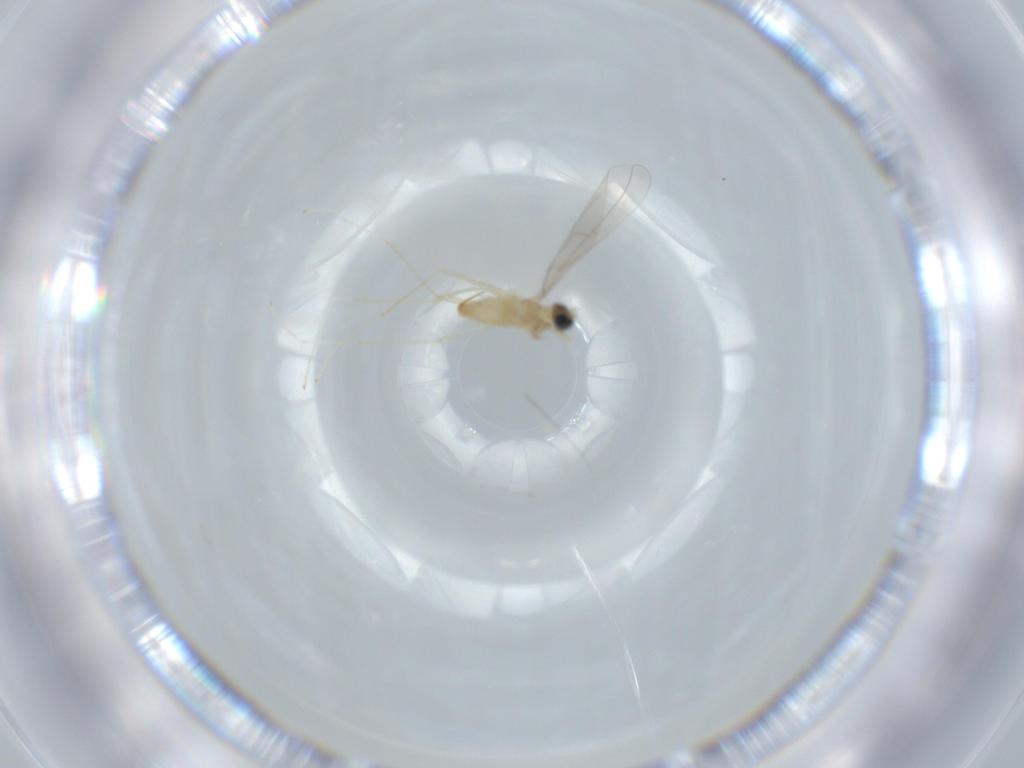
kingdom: Animalia
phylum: Arthropoda
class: Insecta
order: Diptera
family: Cecidomyiidae
